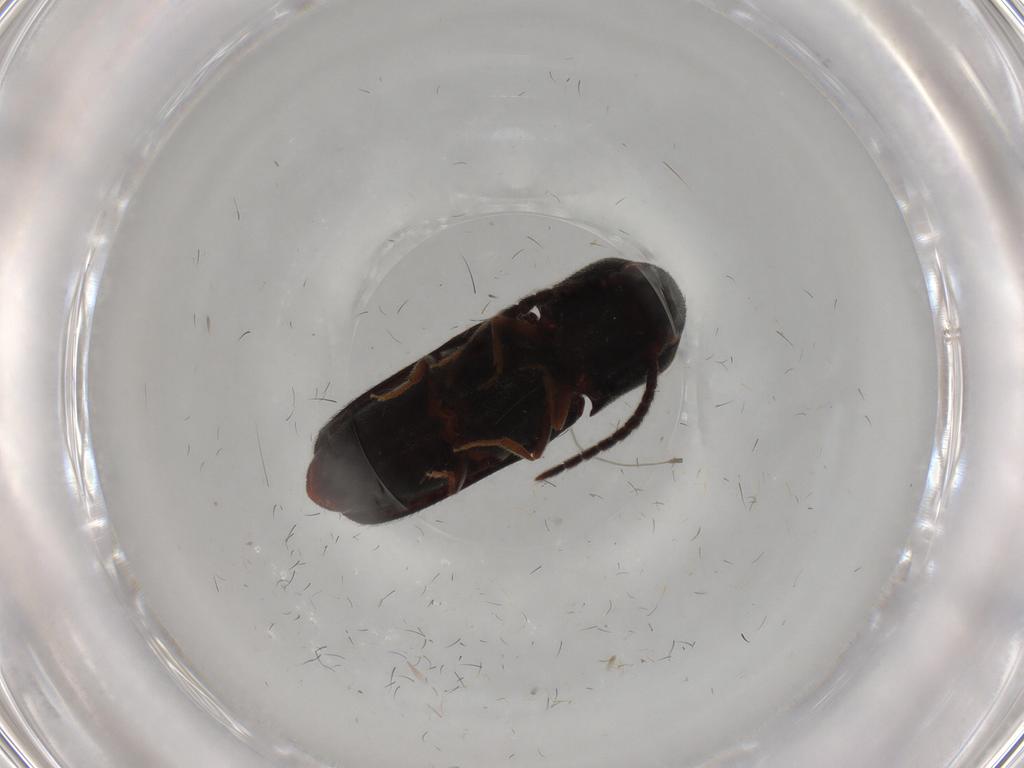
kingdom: Animalia
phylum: Arthropoda
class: Insecta
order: Coleoptera
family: Eucnemidae
